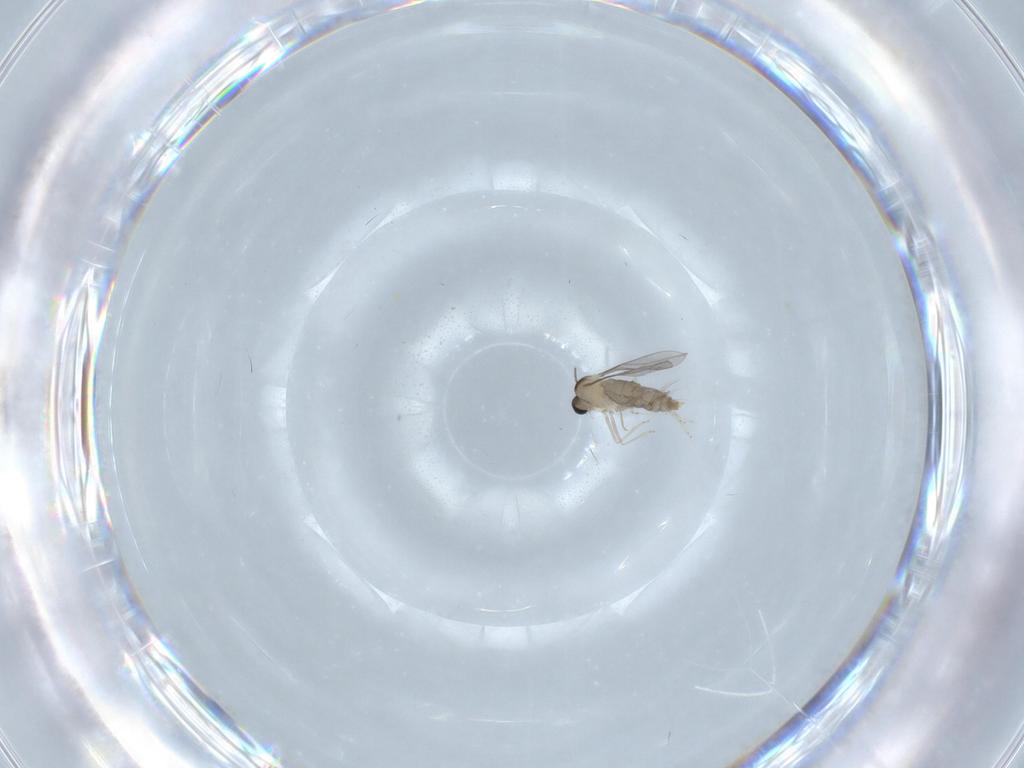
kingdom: Animalia
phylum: Arthropoda
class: Insecta
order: Diptera
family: Cecidomyiidae
